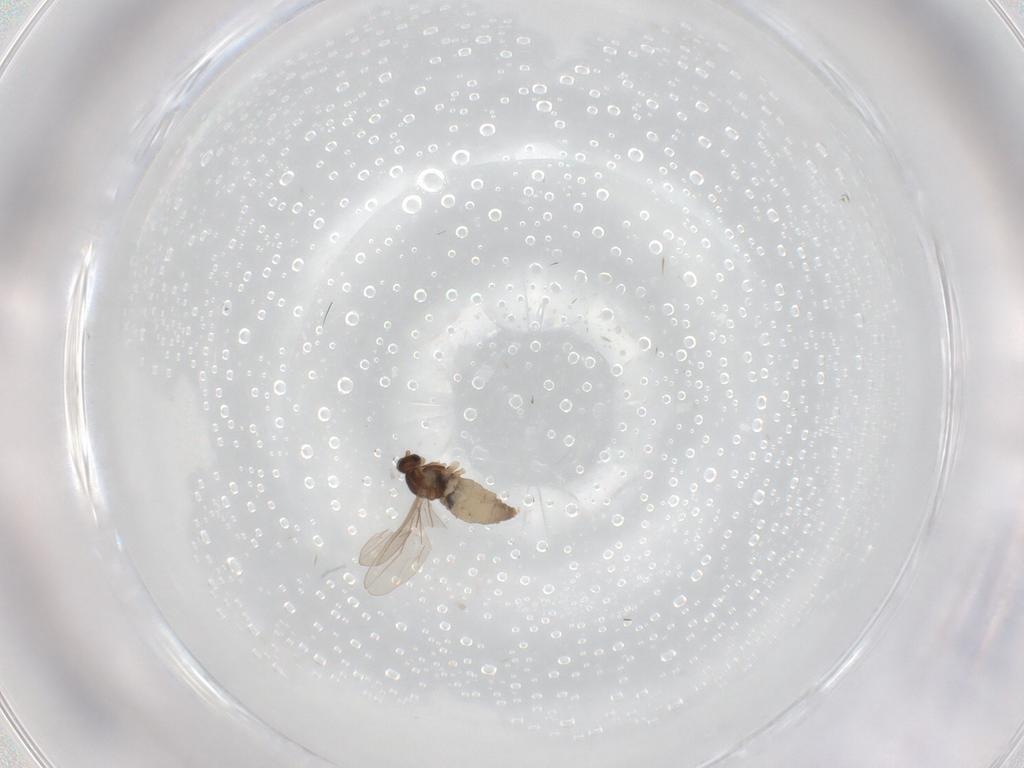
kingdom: Animalia
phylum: Arthropoda
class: Insecta
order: Diptera
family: Cecidomyiidae
